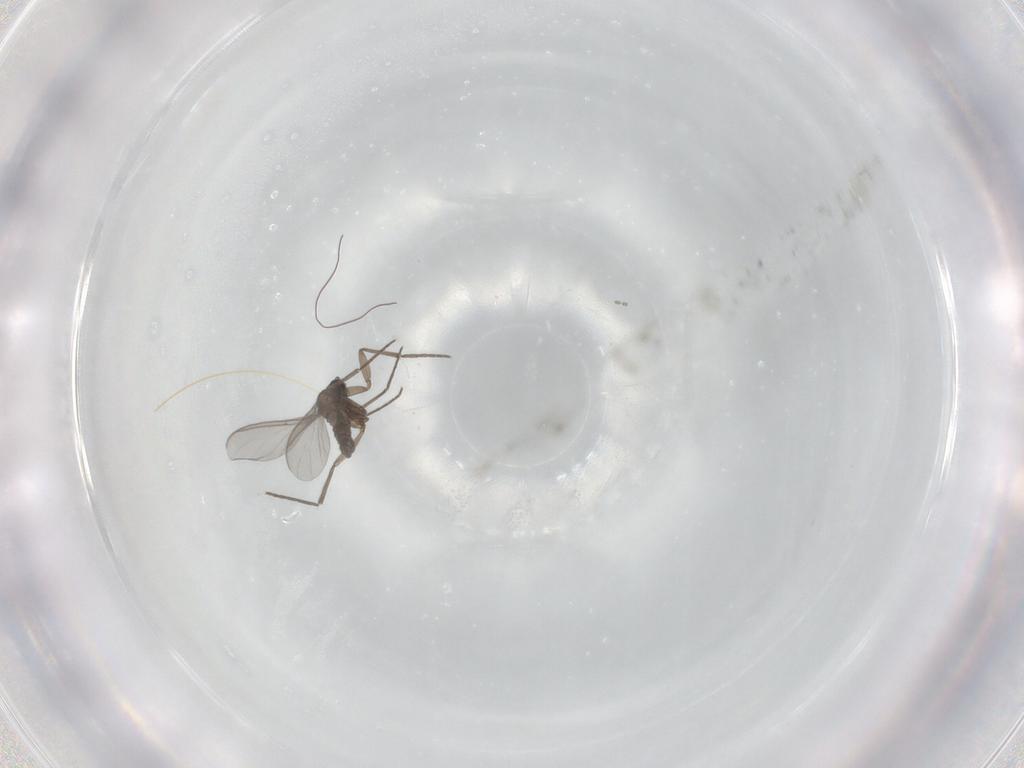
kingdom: Animalia
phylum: Arthropoda
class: Insecta
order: Diptera
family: Sciaridae
